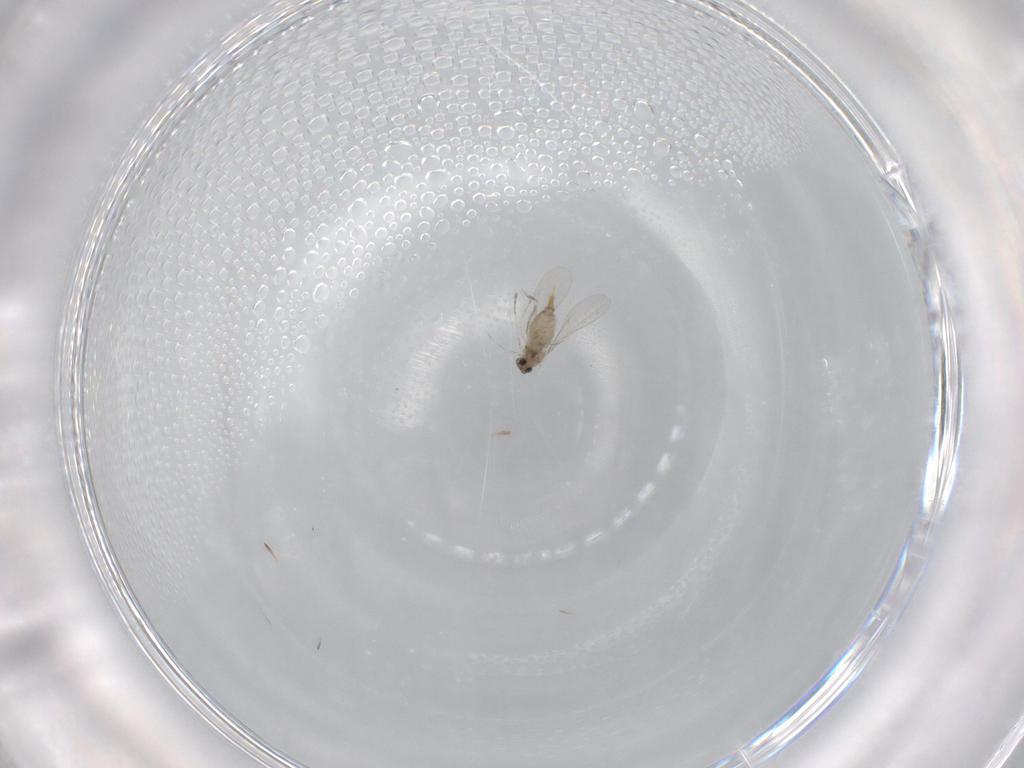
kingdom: Animalia
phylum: Arthropoda
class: Insecta
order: Diptera
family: Cecidomyiidae
